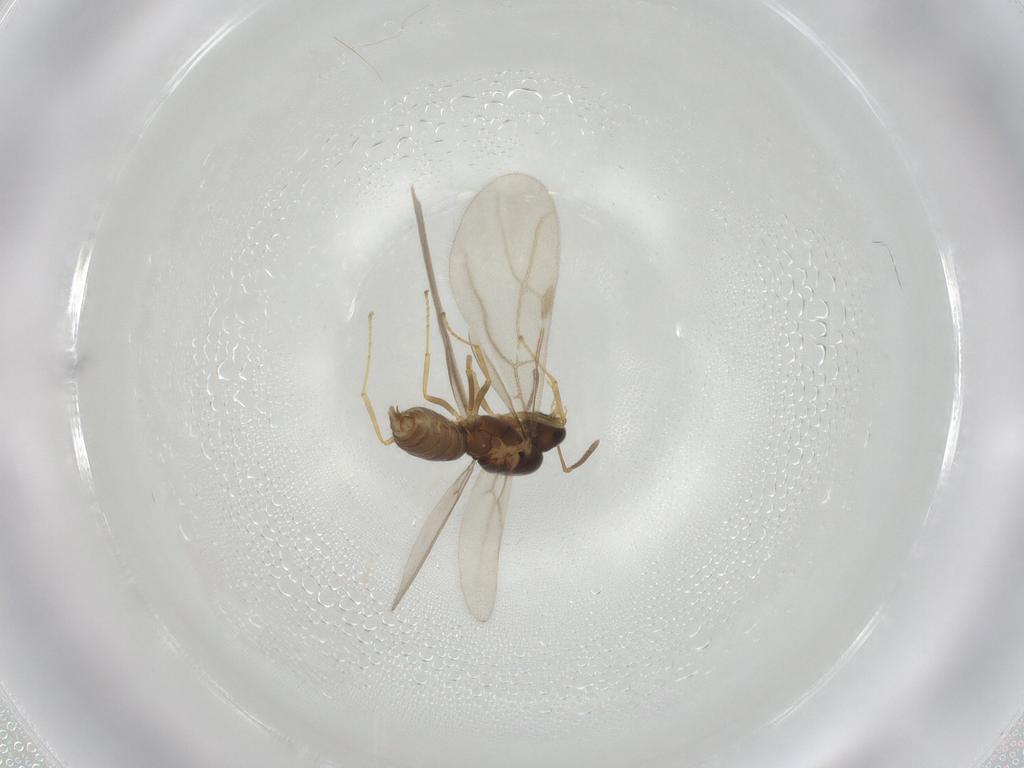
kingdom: Animalia
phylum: Arthropoda
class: Insecta
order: Hymenoptera
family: Formicidae
